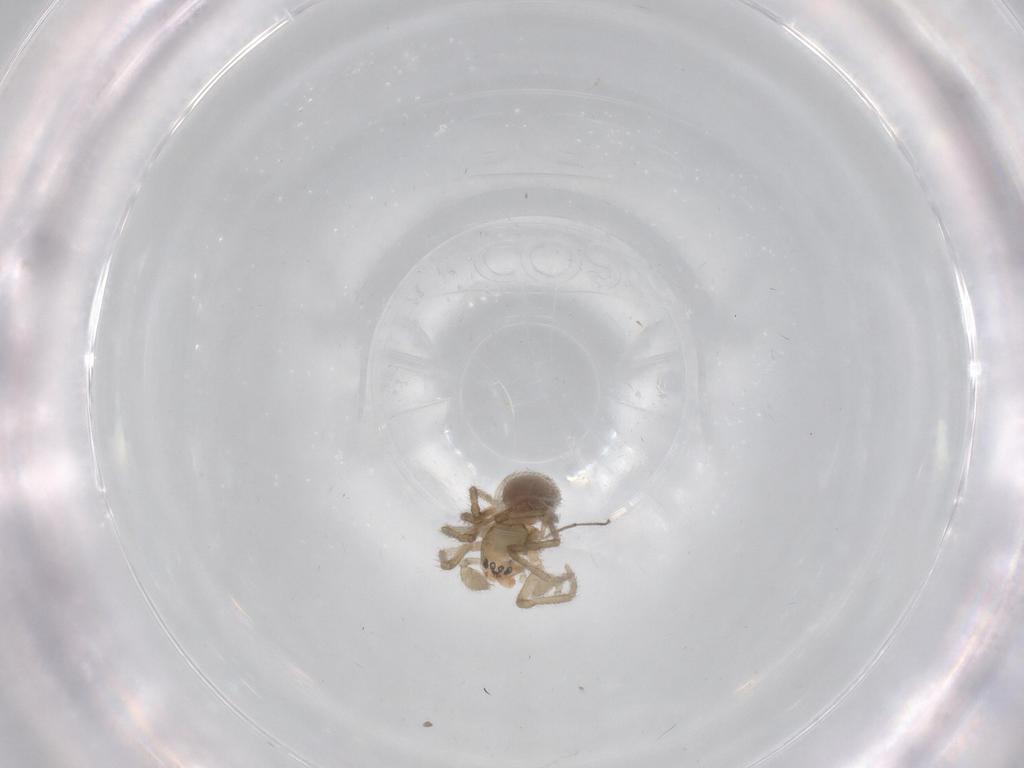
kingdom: Animalia
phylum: Arthropoda
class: Arachnida
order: Araneae
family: Linyphiidae
